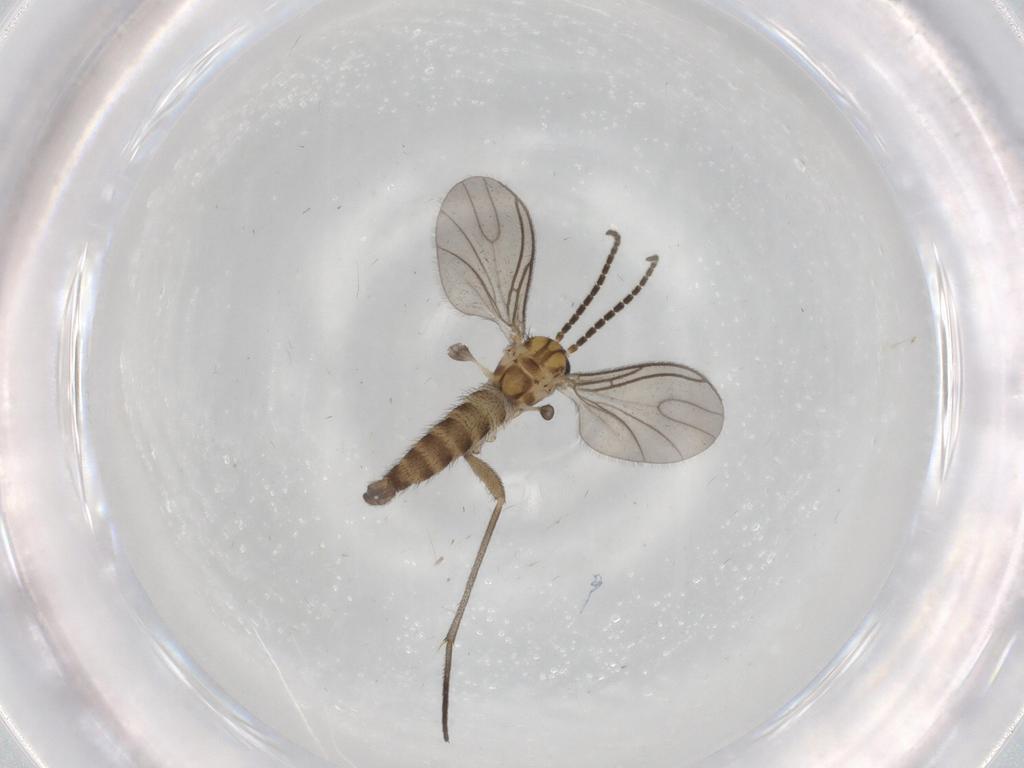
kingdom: Animalia
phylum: Arthropoda
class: Insecta
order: Diptera
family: Sciaridae
